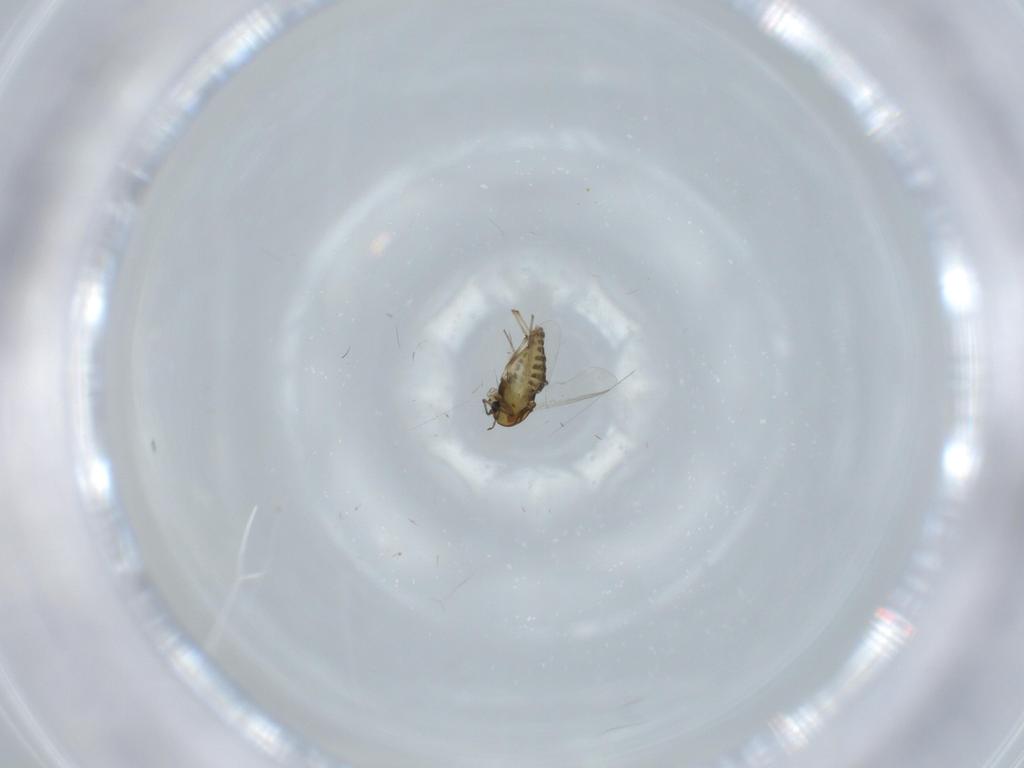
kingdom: Animalia
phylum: Arthropoda
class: Insecta
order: Diptera
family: Chironomidae
